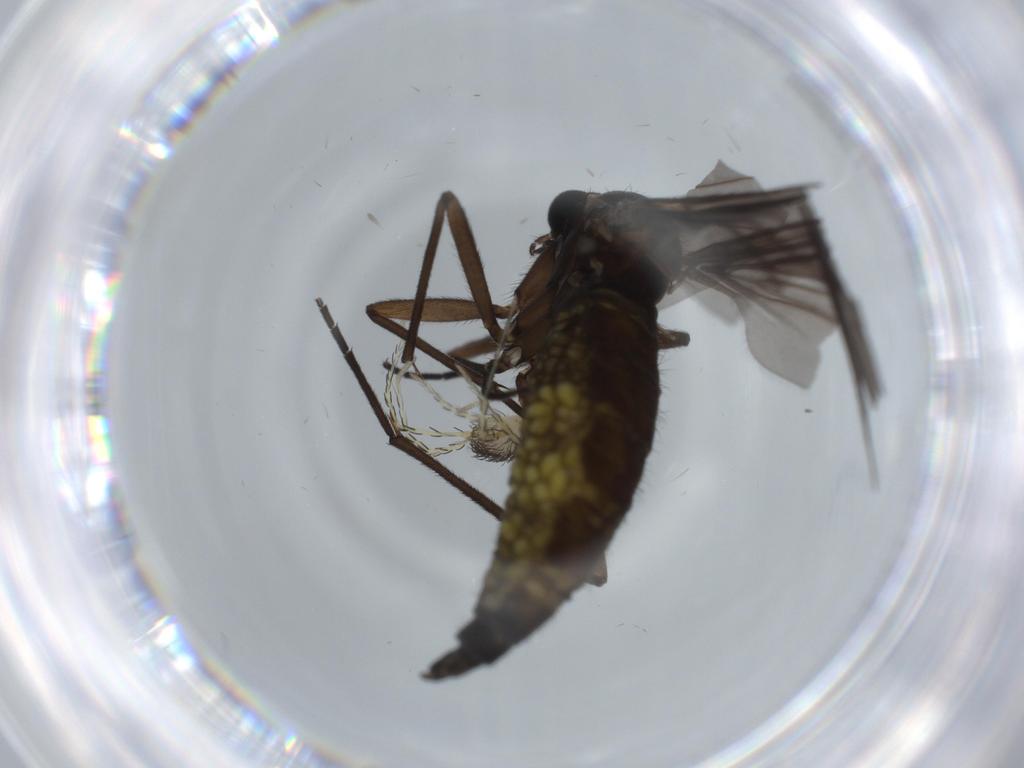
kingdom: Animalia
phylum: Arthropoda
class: Insecta
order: Diptera
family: Sciaridae
